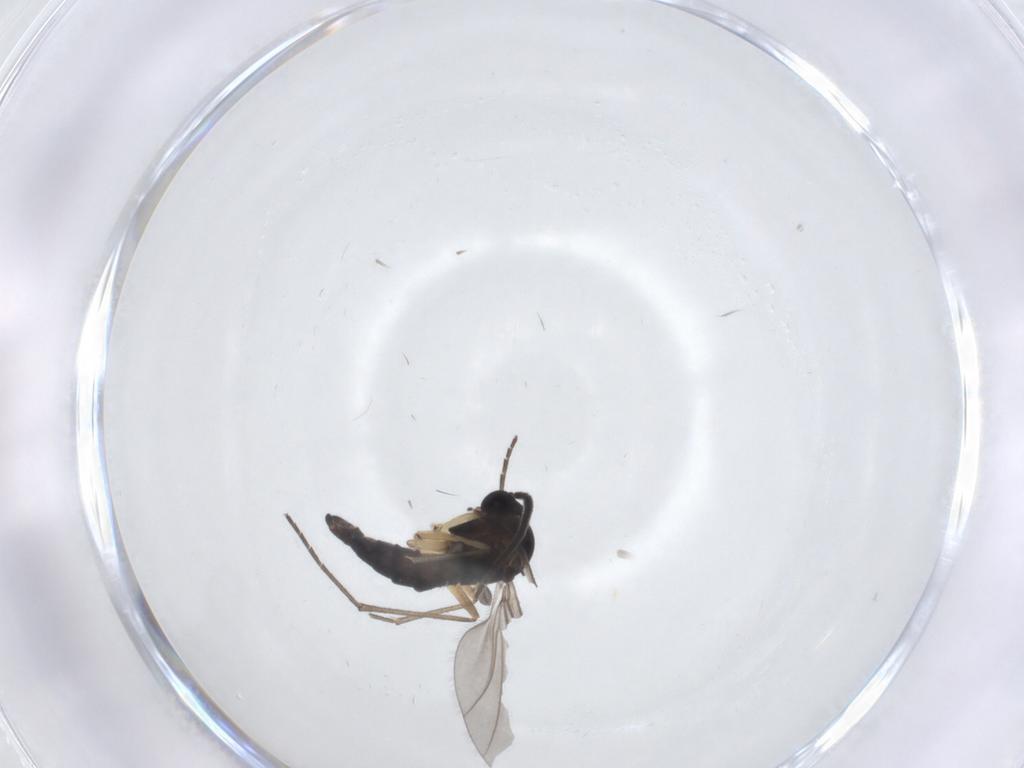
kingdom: Animalia
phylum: Arthropoda
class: Insecta
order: Diptera
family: Sciaridae
